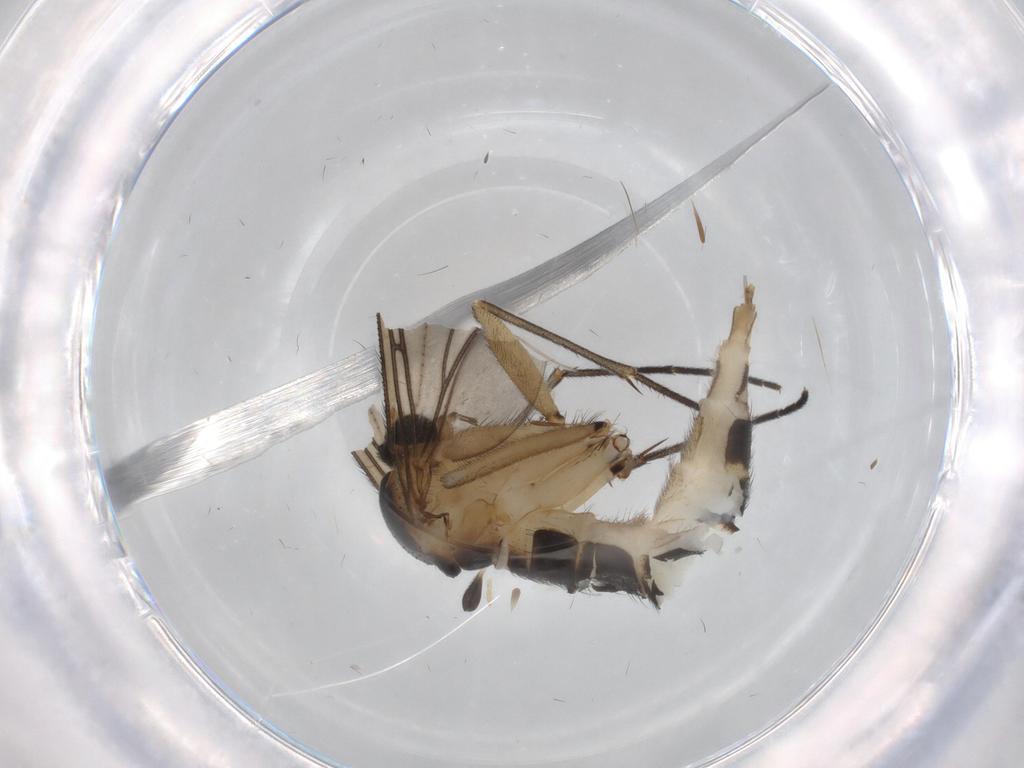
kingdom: Animalia
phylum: Arthropoda
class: Insecta
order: Diptera
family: Sciaridae
